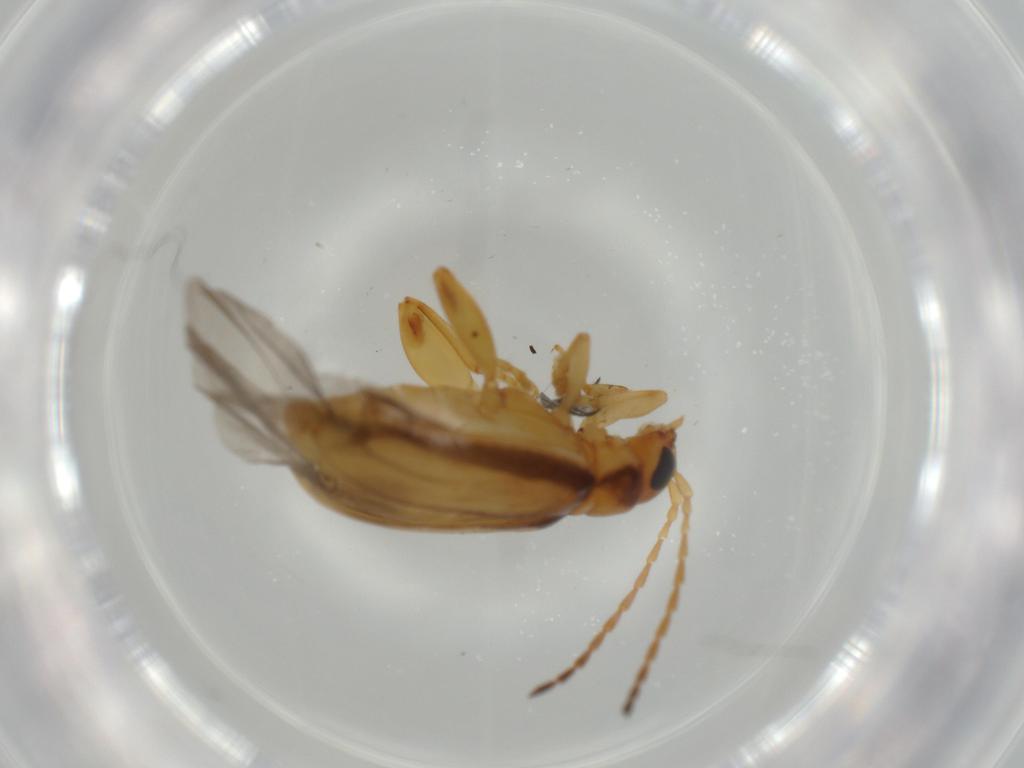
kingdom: Animalia
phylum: Arthropoda
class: Insecta
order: Coleoptera
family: Chrysomelidae
